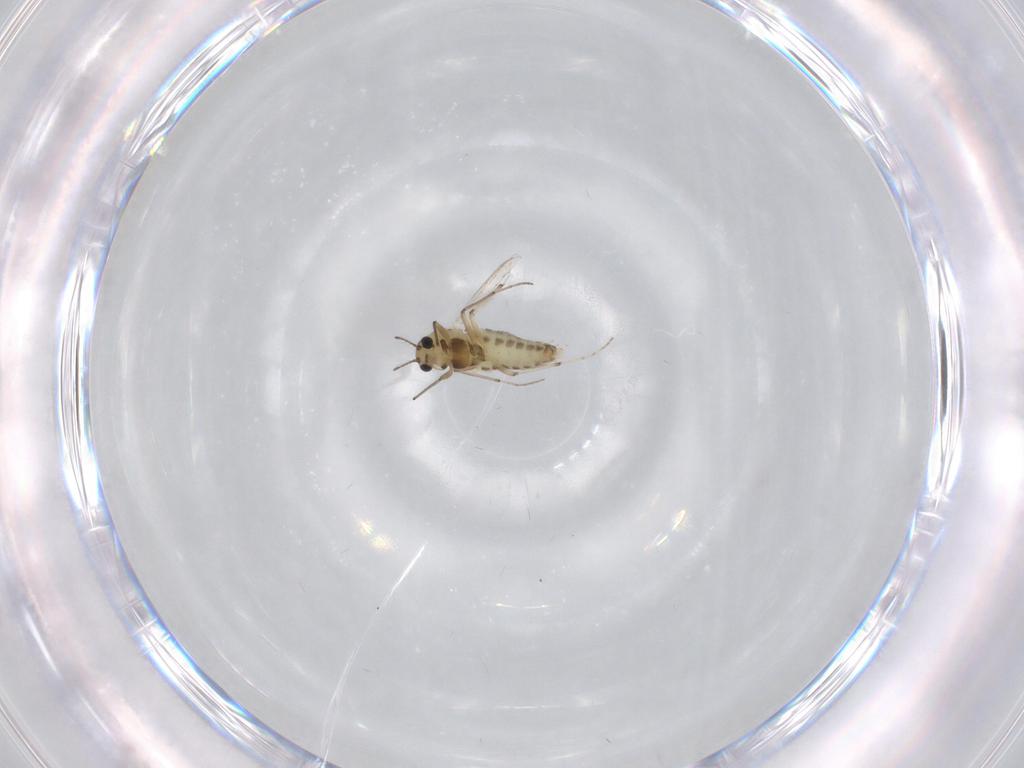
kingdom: Animalia
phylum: Arthropoda
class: Insecta
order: Diptera
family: Chironomidae
